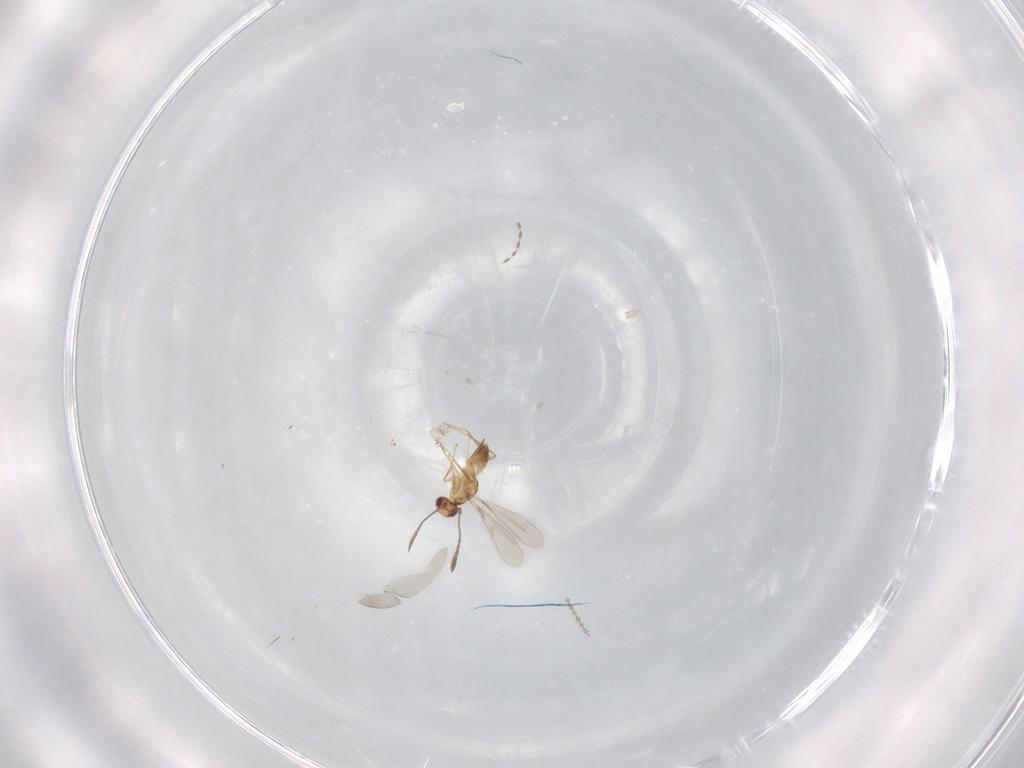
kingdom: Animalia
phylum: Arthropoda
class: Insecta
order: Hymenoptera
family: Mymaridae
